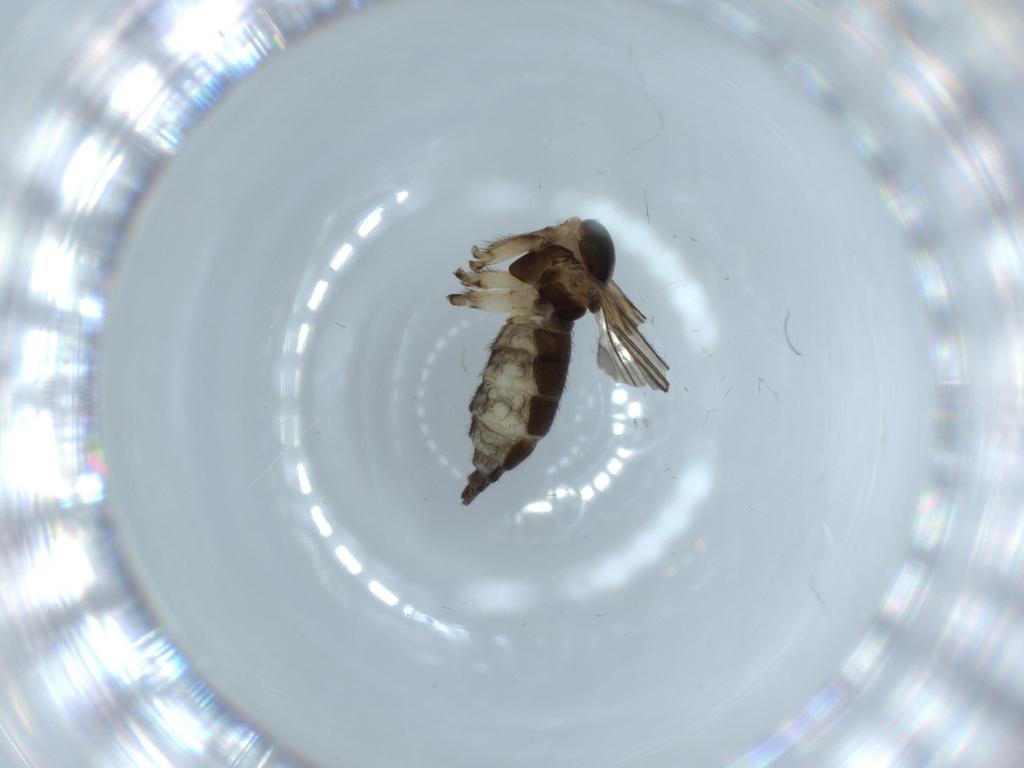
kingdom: Animalia
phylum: Arthropoda
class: Insecta
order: Diptera
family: Sciaridae
